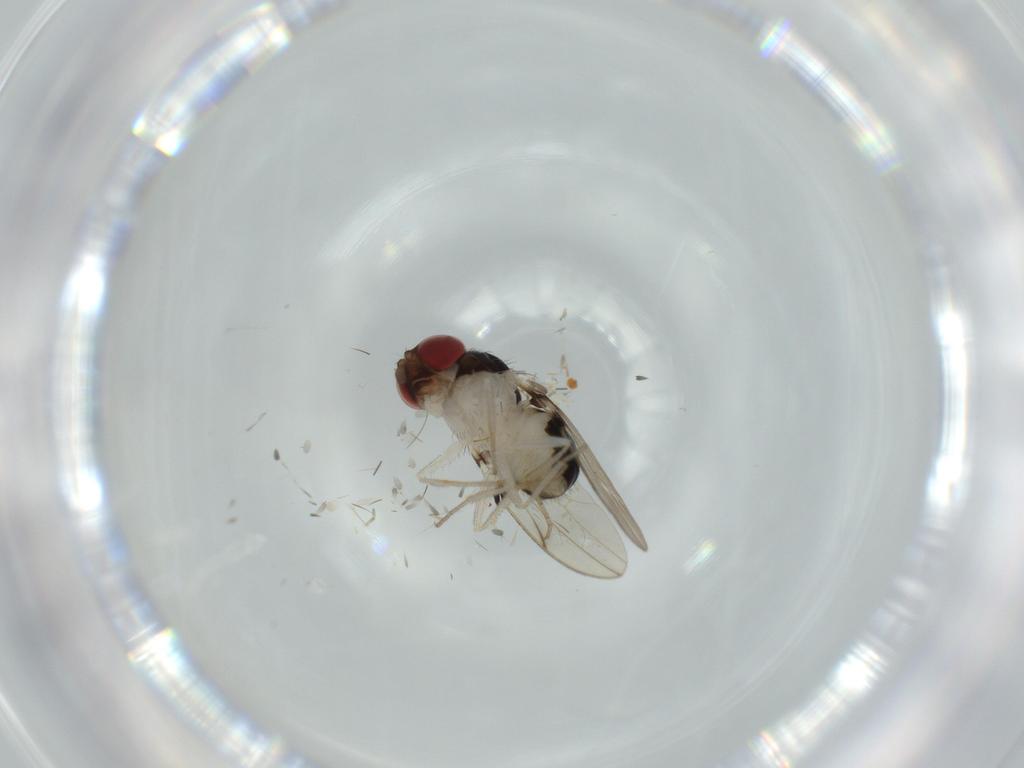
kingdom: Animalia
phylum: Arthropoda
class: Insecta
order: Diptera
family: Drosophilidae
